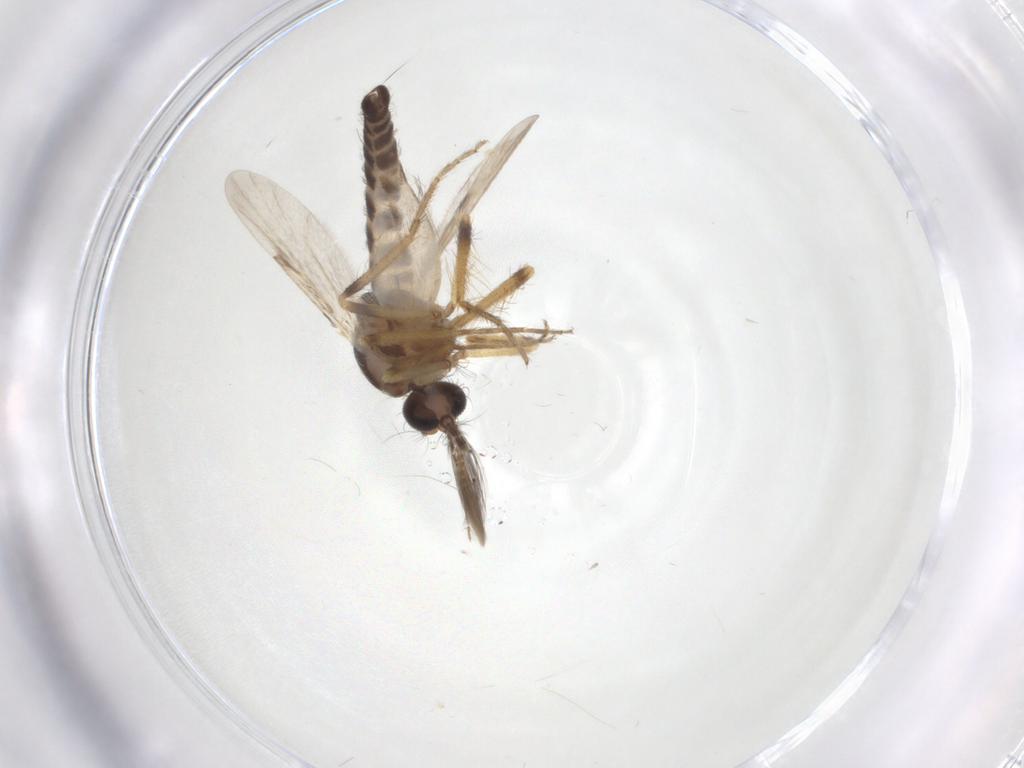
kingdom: Animalia
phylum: Arthropoda
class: Insecta
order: Diptera
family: Ceratopogonidae
